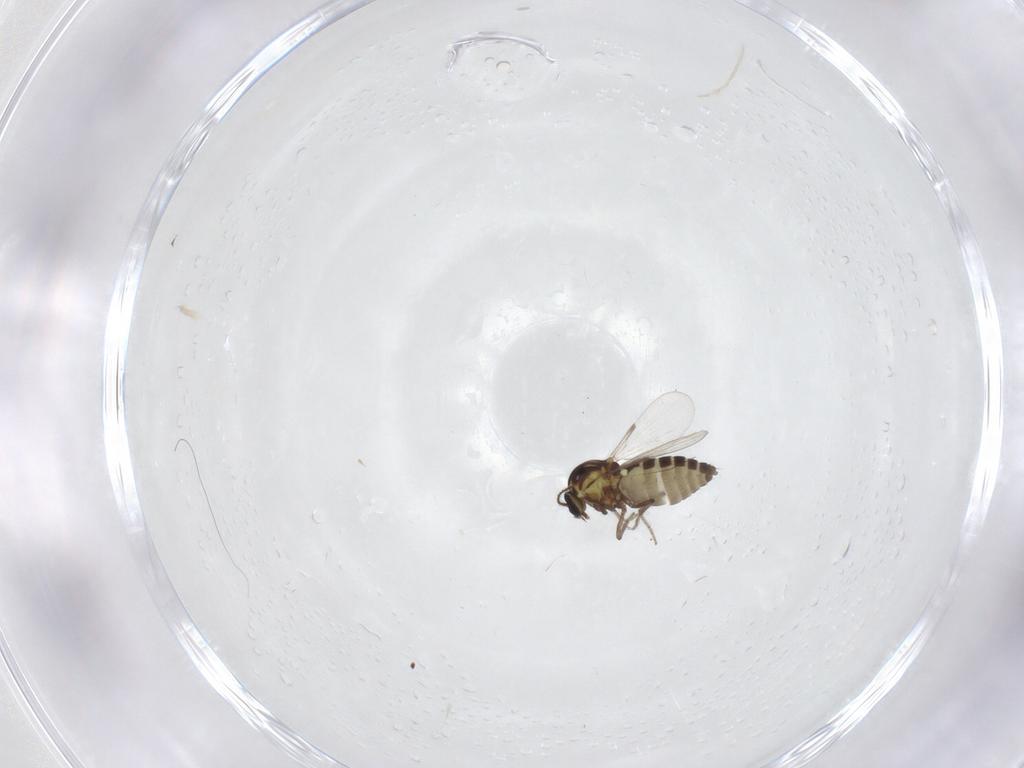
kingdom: Animalia
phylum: Arthropoda
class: Insecta
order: Diptera
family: Ceratopogonidae
